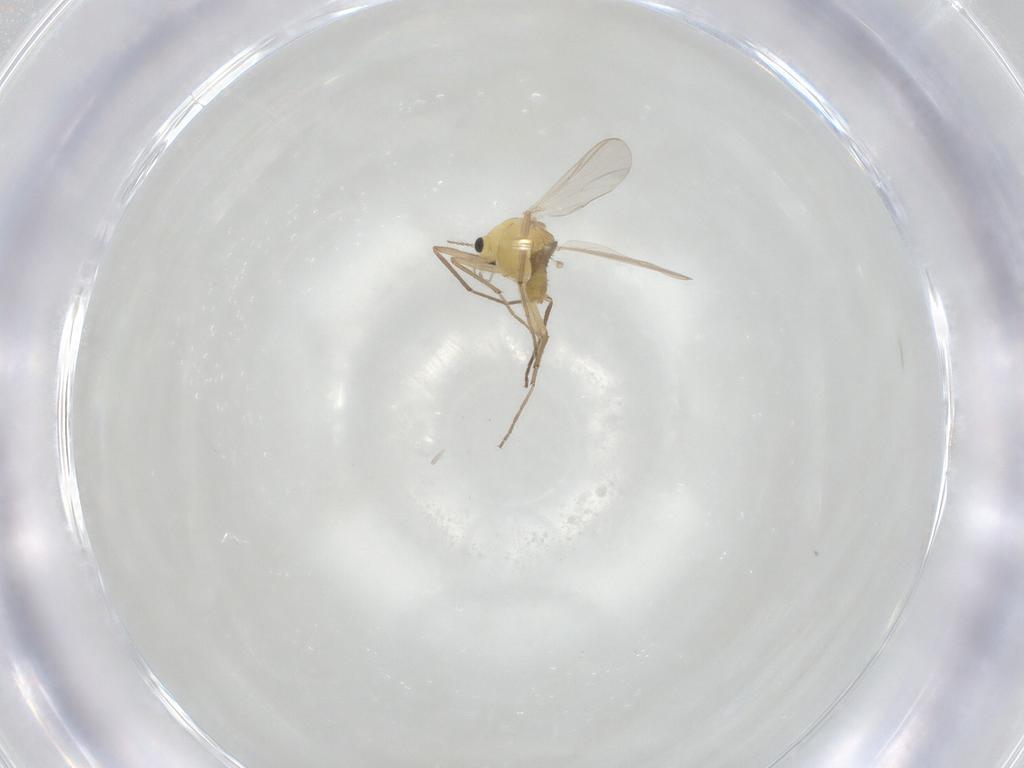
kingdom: Animalia
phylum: Arthropoda
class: Insecta
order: Diptera
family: Chironomidae
